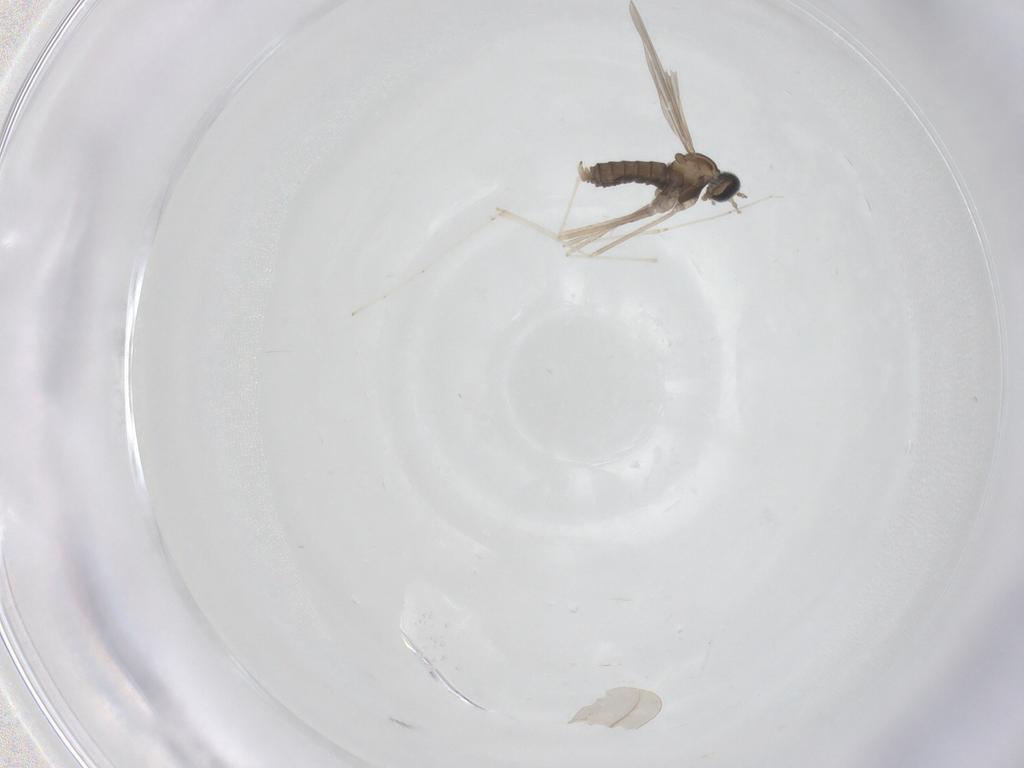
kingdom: Animalia
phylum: Arthropoda
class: Insecta
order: Diptera
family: Cecidomyiidae
